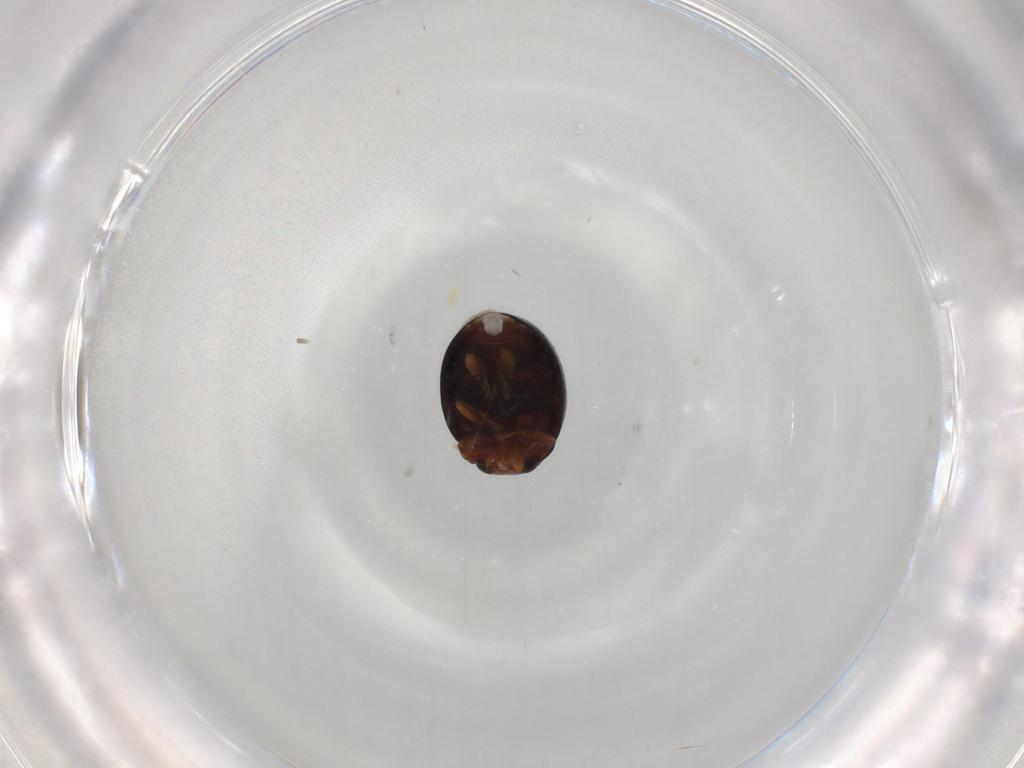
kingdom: Animalia
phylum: Arthropoda
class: Insecta
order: Coleoptera
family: Coccinellidae
